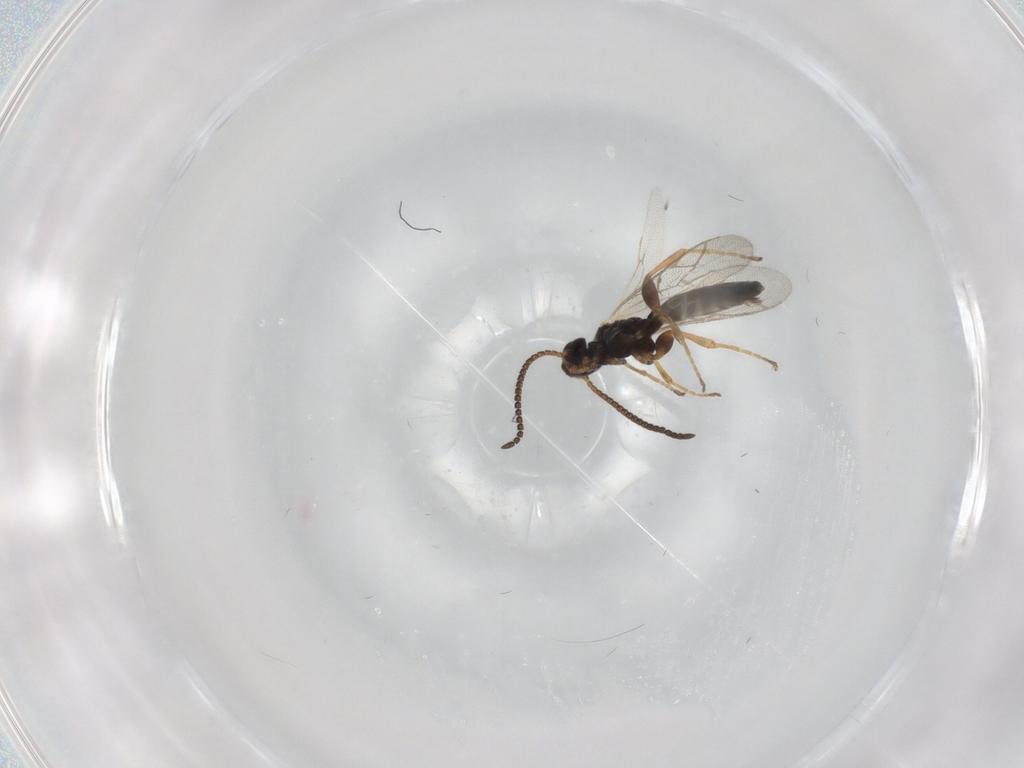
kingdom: Animalia
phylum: Arthropoda
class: Insecta
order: Hymenoptera
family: Ichneumonidae
